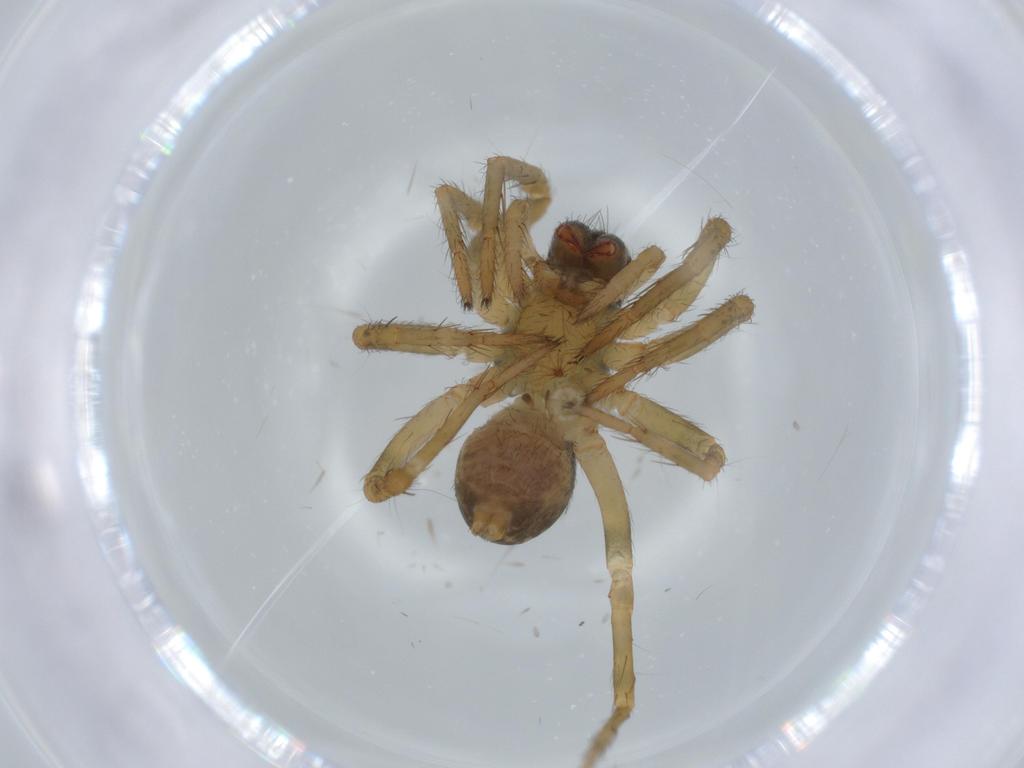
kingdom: Animalia
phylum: Arthropoda
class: Arachnida
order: Araneae
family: Lycosidae
